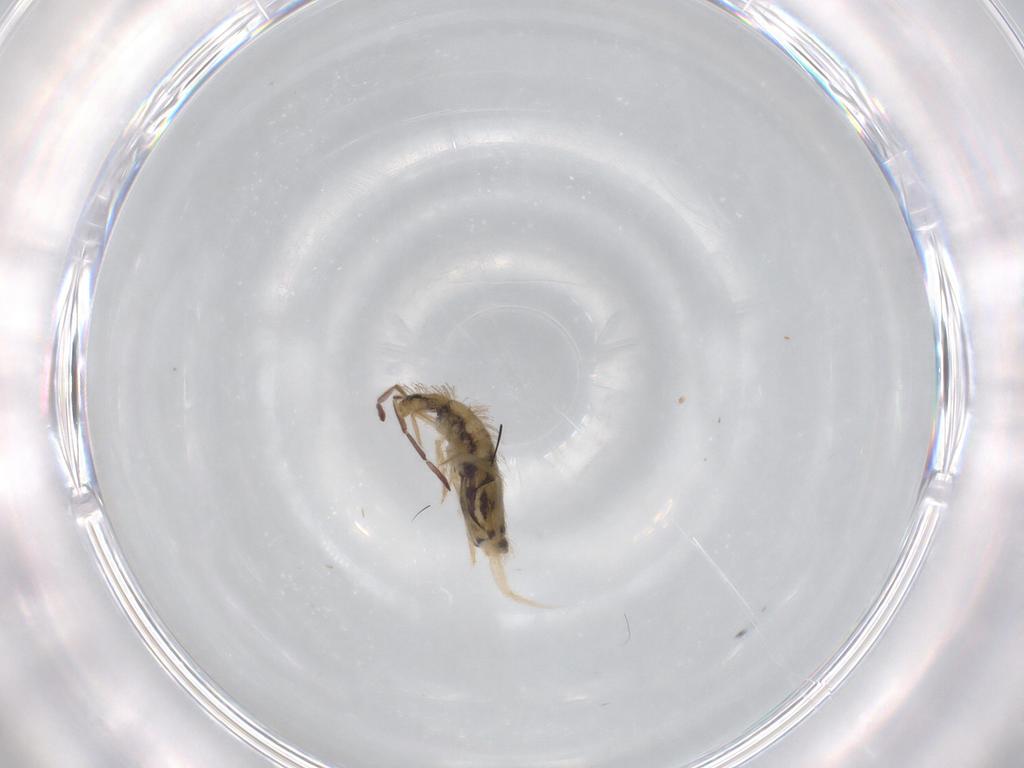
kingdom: Animalia
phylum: Arthropoda
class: Collembola
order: Entomobryomorpha
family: Entomobryidae
